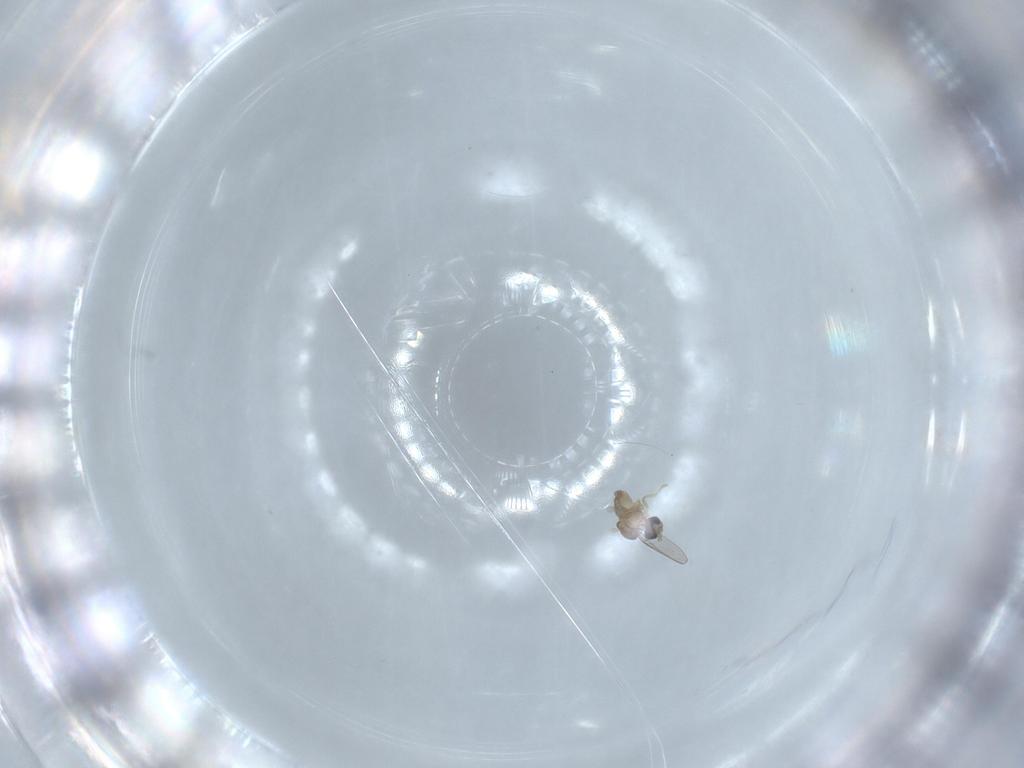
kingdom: Animalia
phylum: Arthropoda
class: Insecta
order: Diptera
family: Cecidomyiidae
